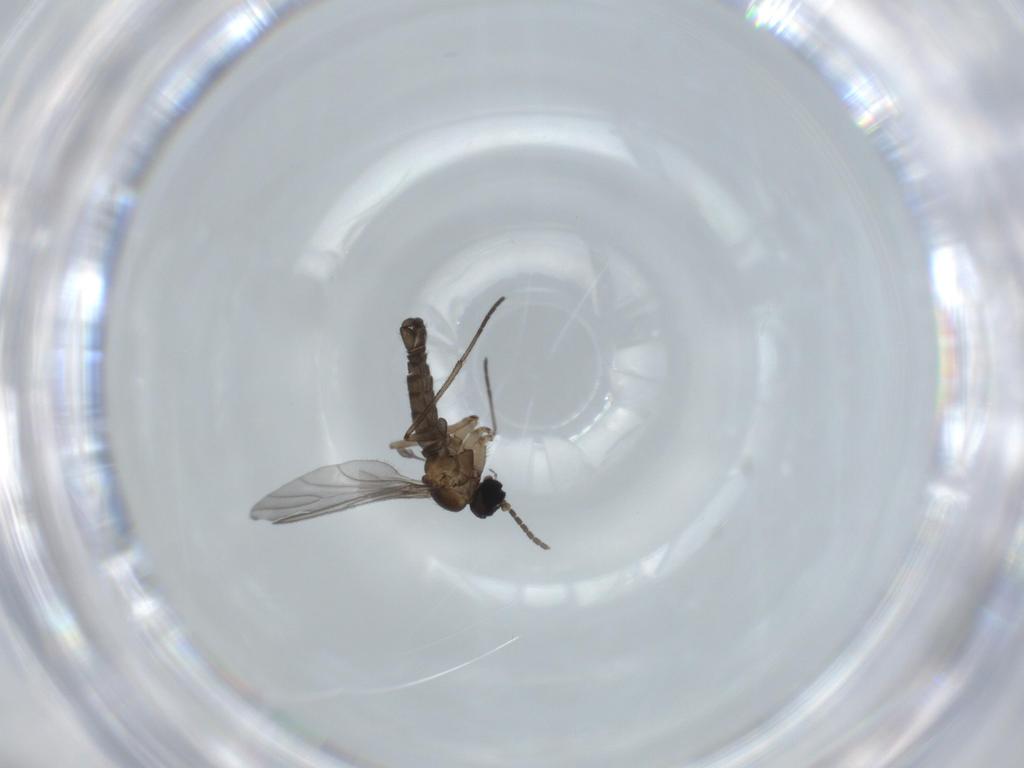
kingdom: Animalia
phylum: Arthropoda
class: Insecta
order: Diptera
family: Sciaridae
